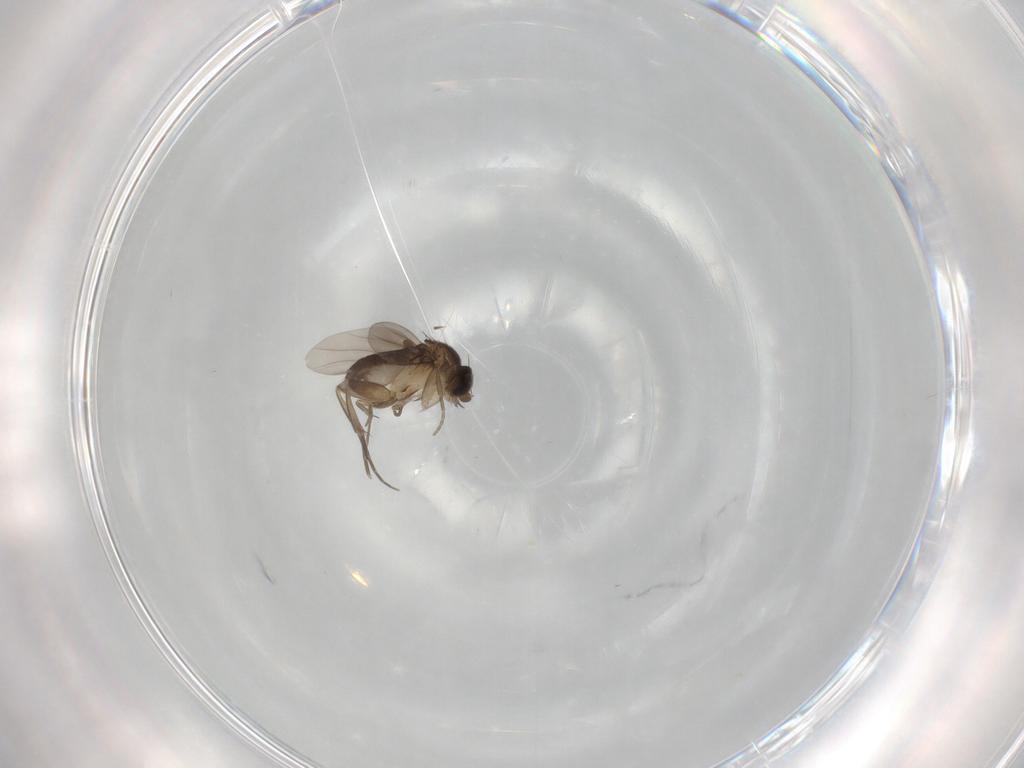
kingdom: Animalia
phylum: Arthropoda
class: Insecta
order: Diptera
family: Phoridae
